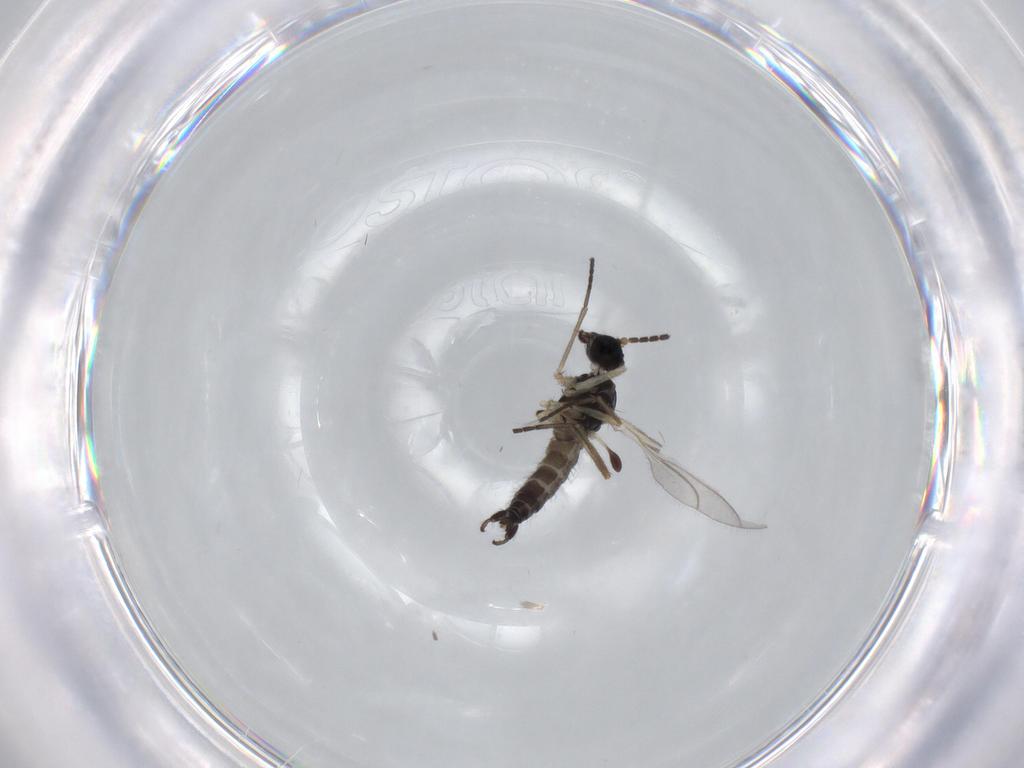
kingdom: Animalia
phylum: Arthropoda
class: Insecta
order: Diptera
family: Sciaridae
